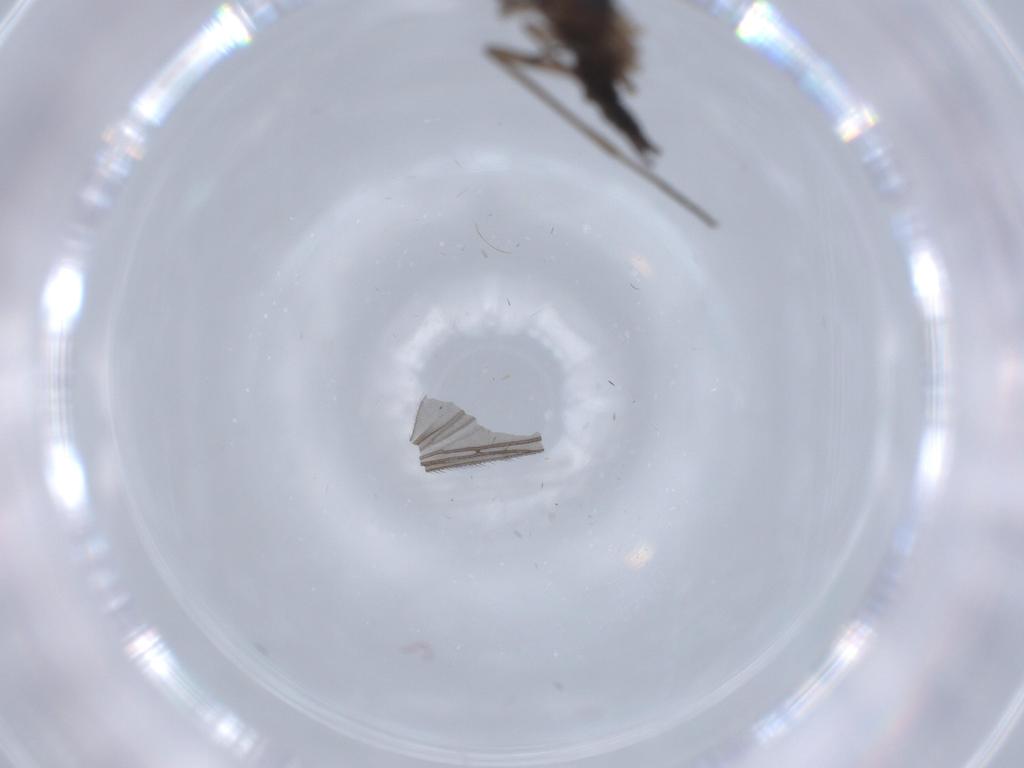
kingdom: Animalia
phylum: Arthropoda
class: Insecta
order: Diptera
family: Sciaridae
